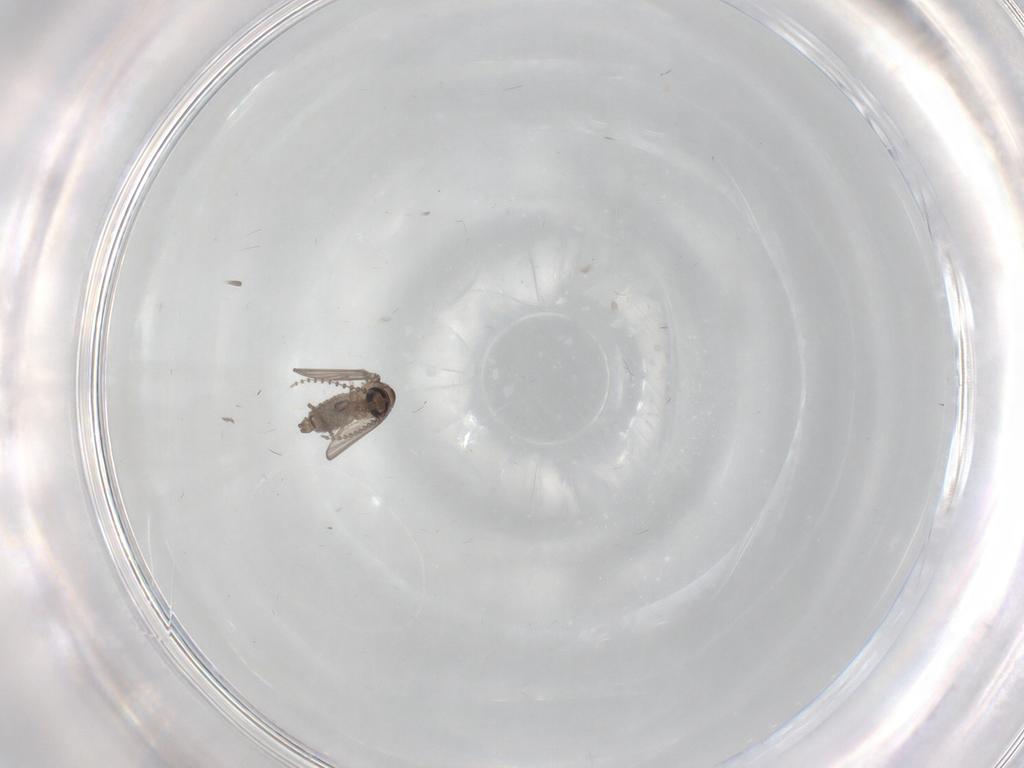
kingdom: Animalia
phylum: Arthropoda
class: Insecta
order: Diptera
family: Psychodidae
